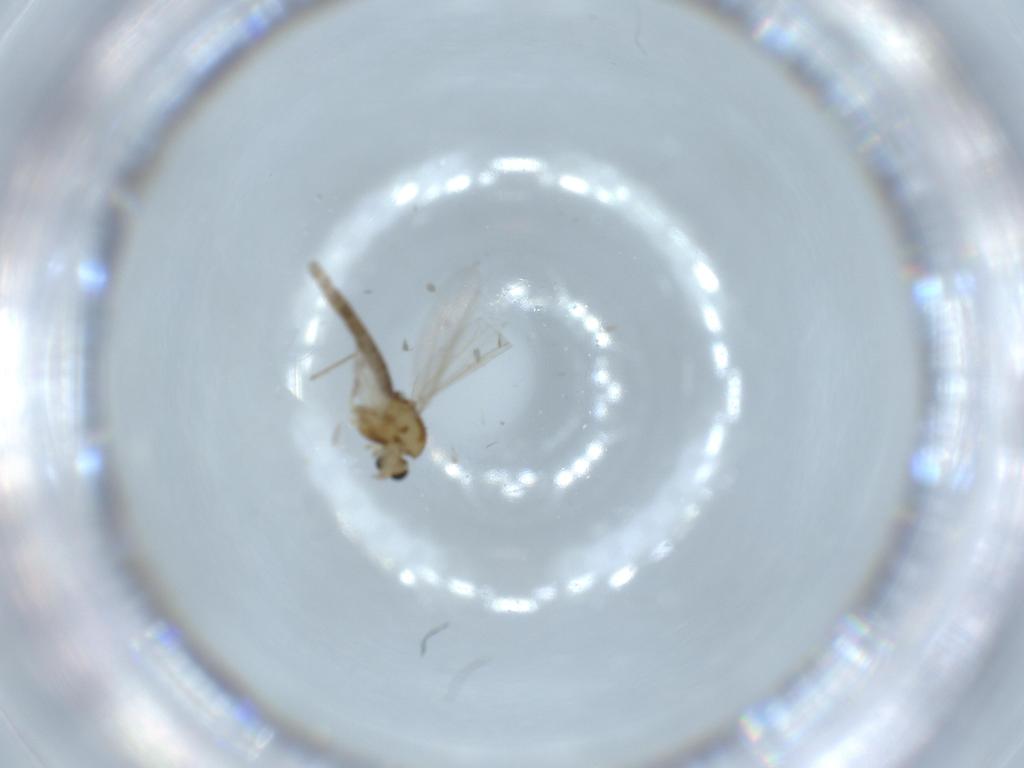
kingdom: Animalia
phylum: Arthropoda
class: Insecta
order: Diptera
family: Chironomidae
